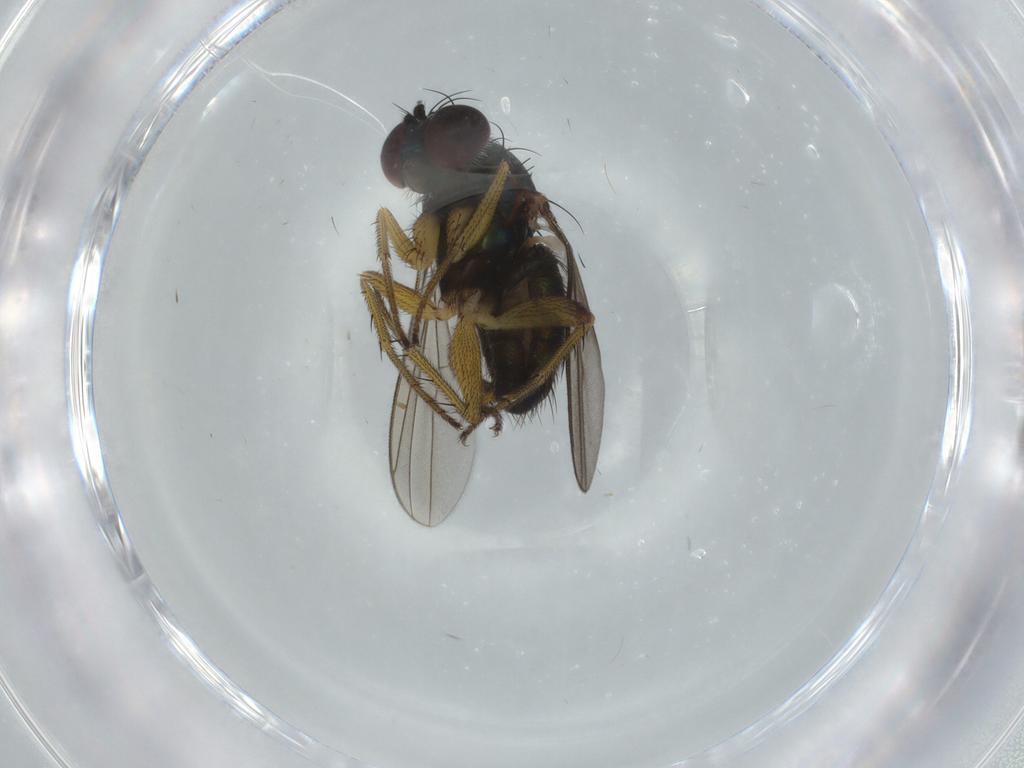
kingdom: Animalia
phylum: Arthropoda
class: Insecta
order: Diptera
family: Dolichopodidae
